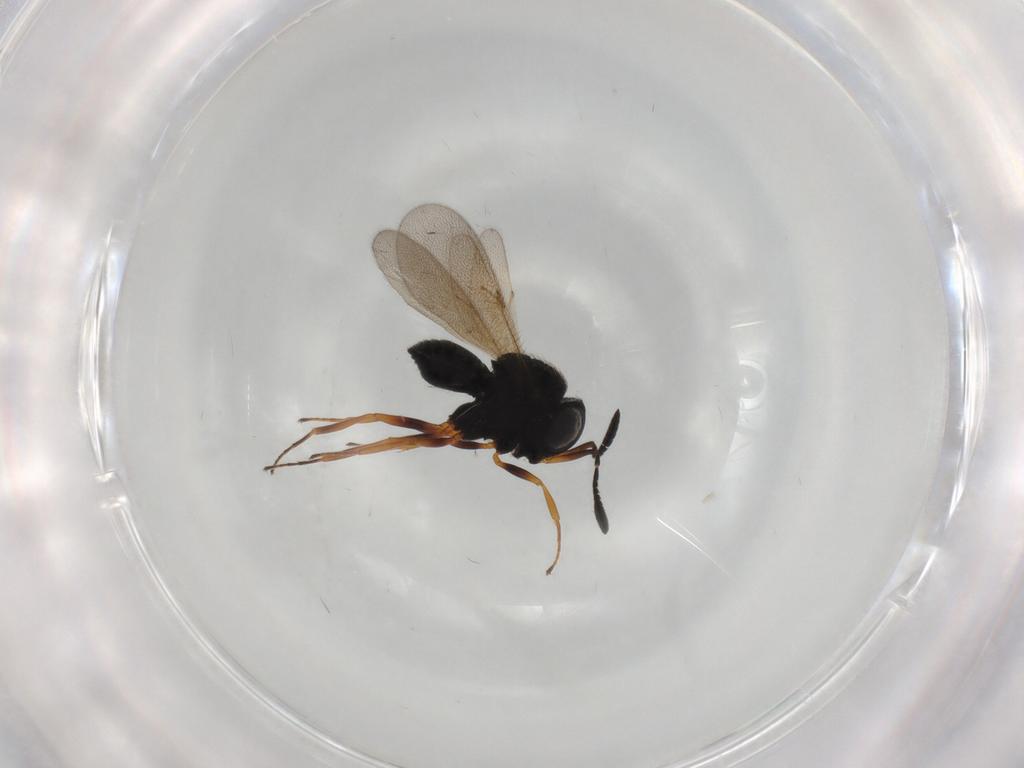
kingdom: Animalia
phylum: Arthropoda
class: Insecta
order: Hymenoptera
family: Scelionidae
